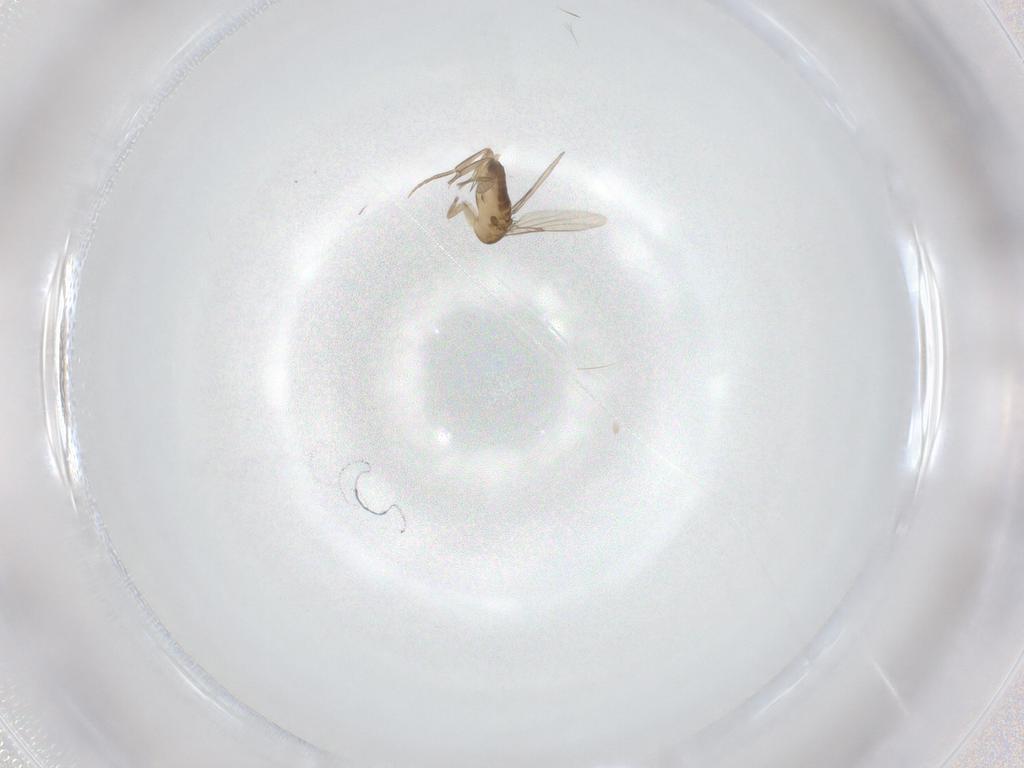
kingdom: Animalia
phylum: Arthropoda
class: Insecta
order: Diptera
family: Phoridae
